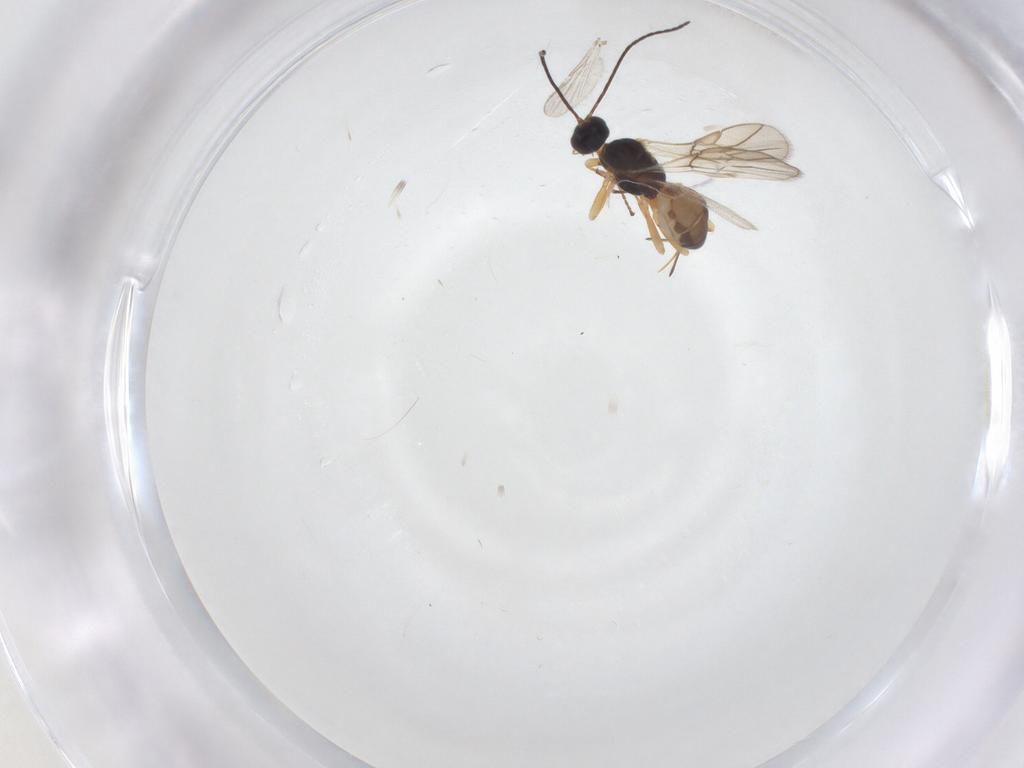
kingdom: Animalia
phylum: Arthropoda
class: Insecta
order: Hymenoptera
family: Braconidae
